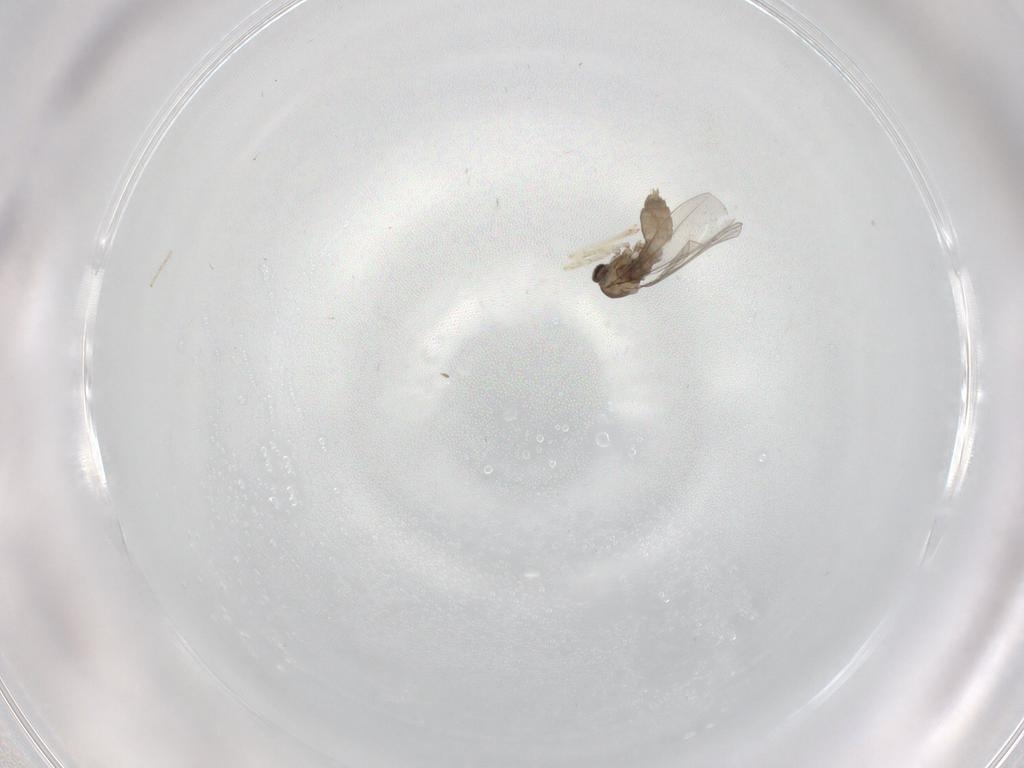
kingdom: Animalia
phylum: Arthropoda
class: Insecta
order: Diptera
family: Cecidomyiidae
